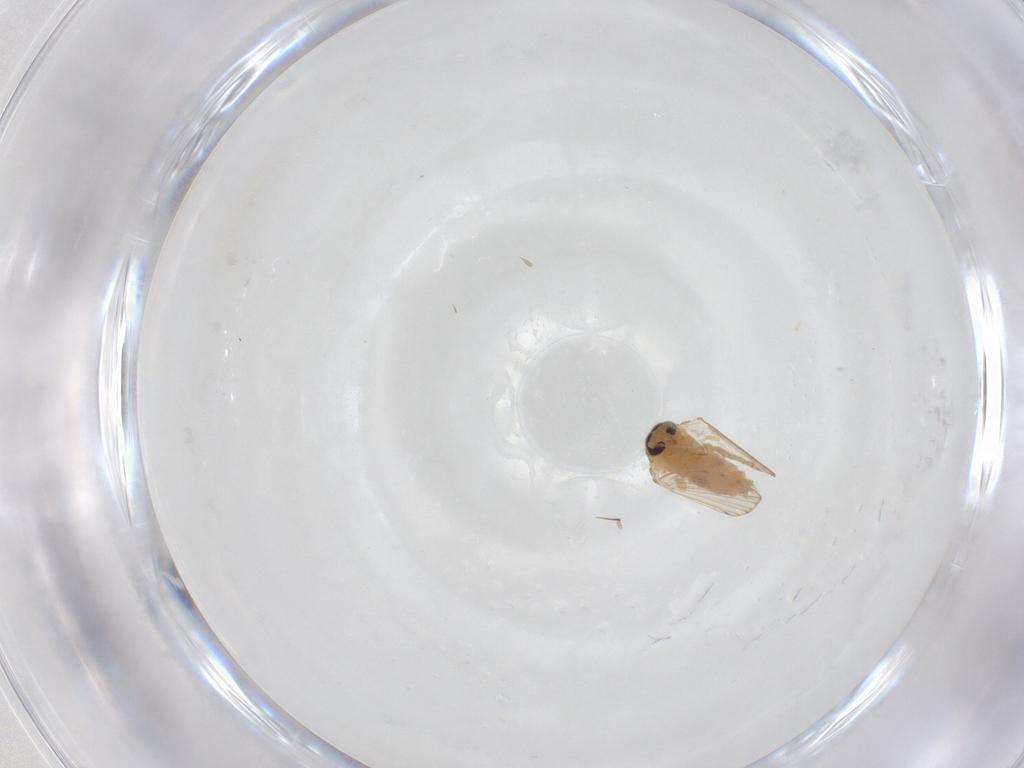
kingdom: Animalia
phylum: Arthropoda
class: Insecta
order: Diptera
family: Psychodidae
